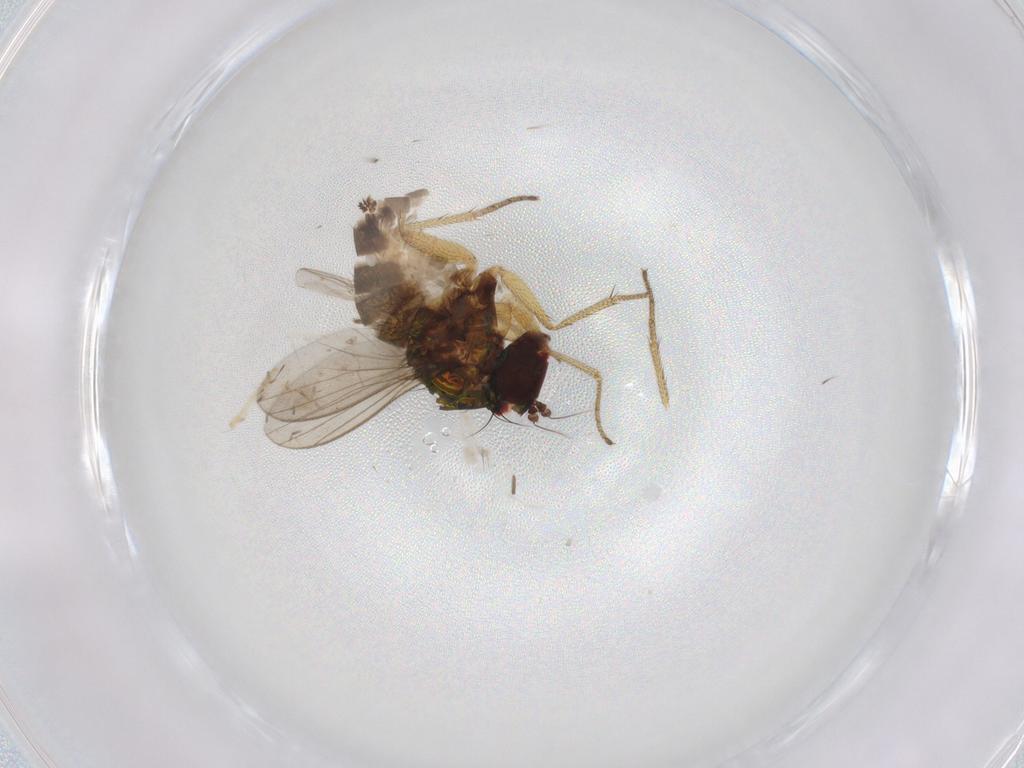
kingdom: Animalia
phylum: Arthropoda
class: Insecta
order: Diptera
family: Dolichopodidae
